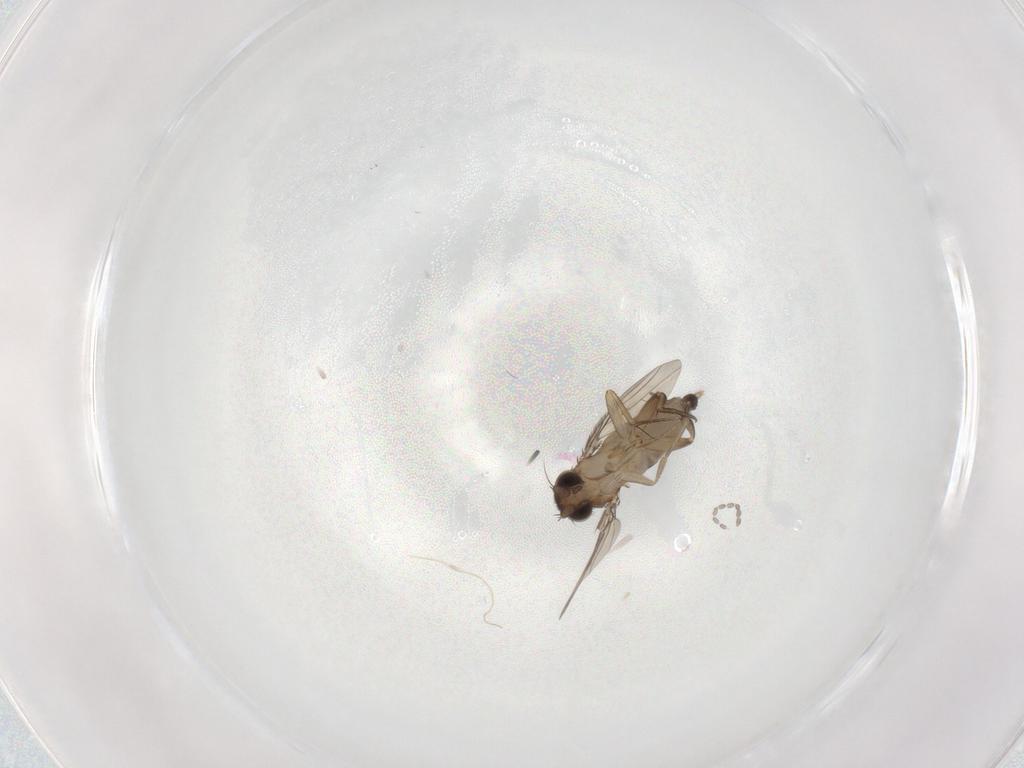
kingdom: Animalia
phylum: Arthropoda
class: Insecta
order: Diptera
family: Phoridae
